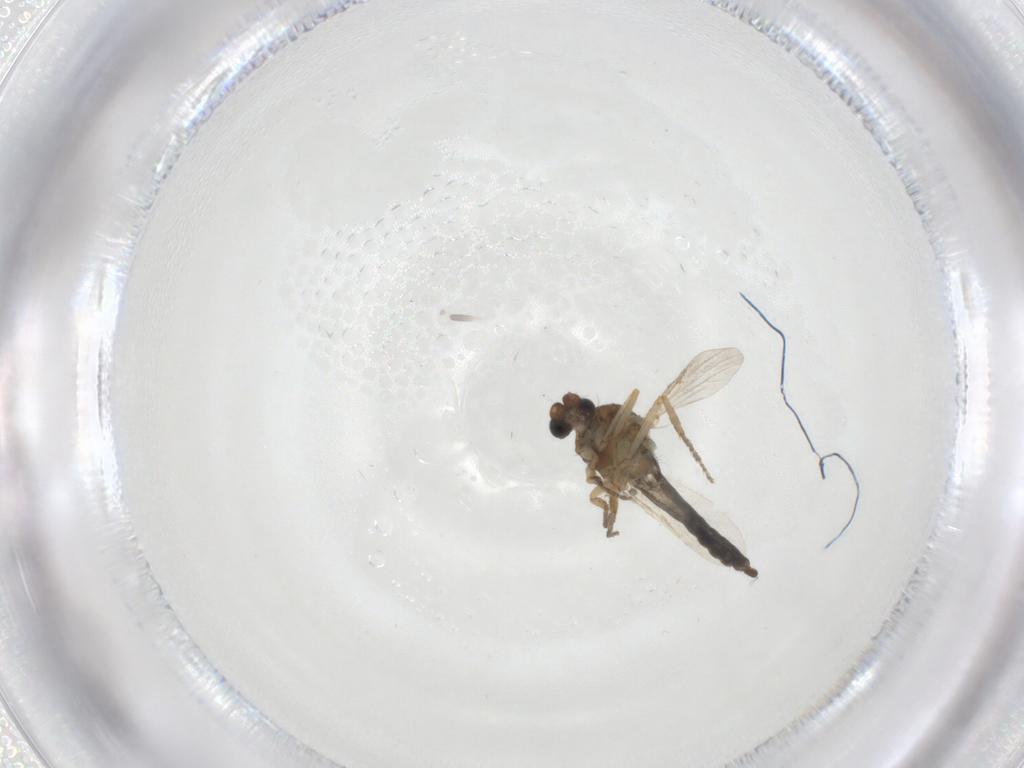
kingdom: Animalia
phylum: Arthropoda
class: Insecta
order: Diptera
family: Ceratopogonidae
